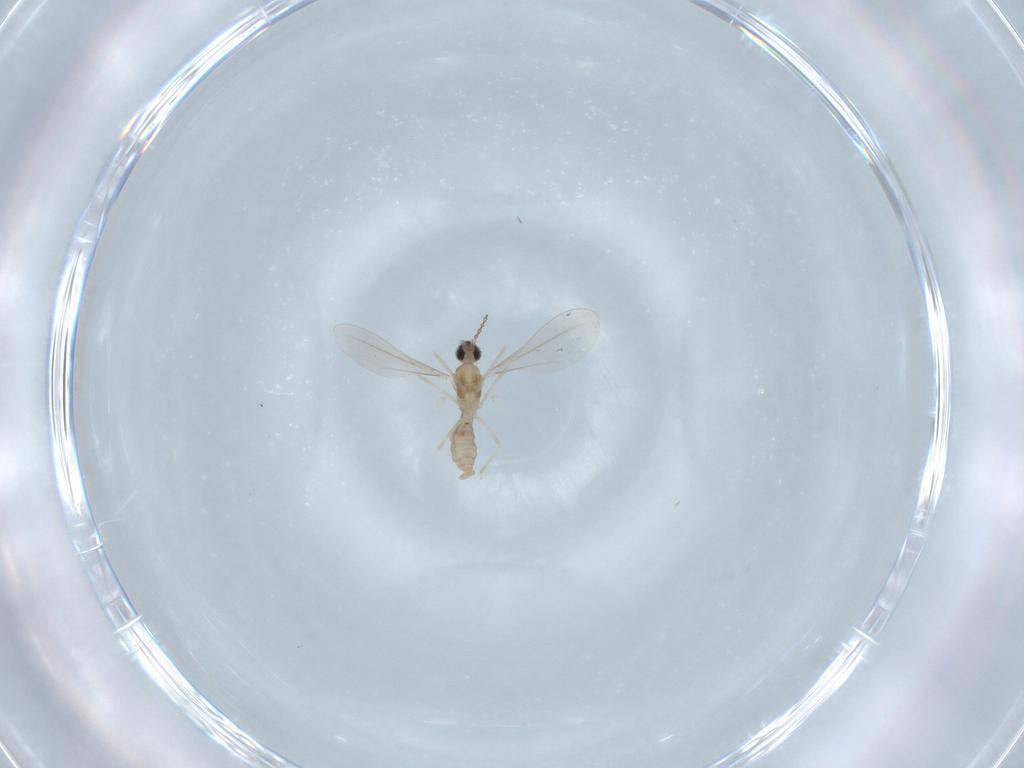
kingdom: Animalia
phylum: Arthropoda
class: Insecta
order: Diptera
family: Cecidomyiidae
